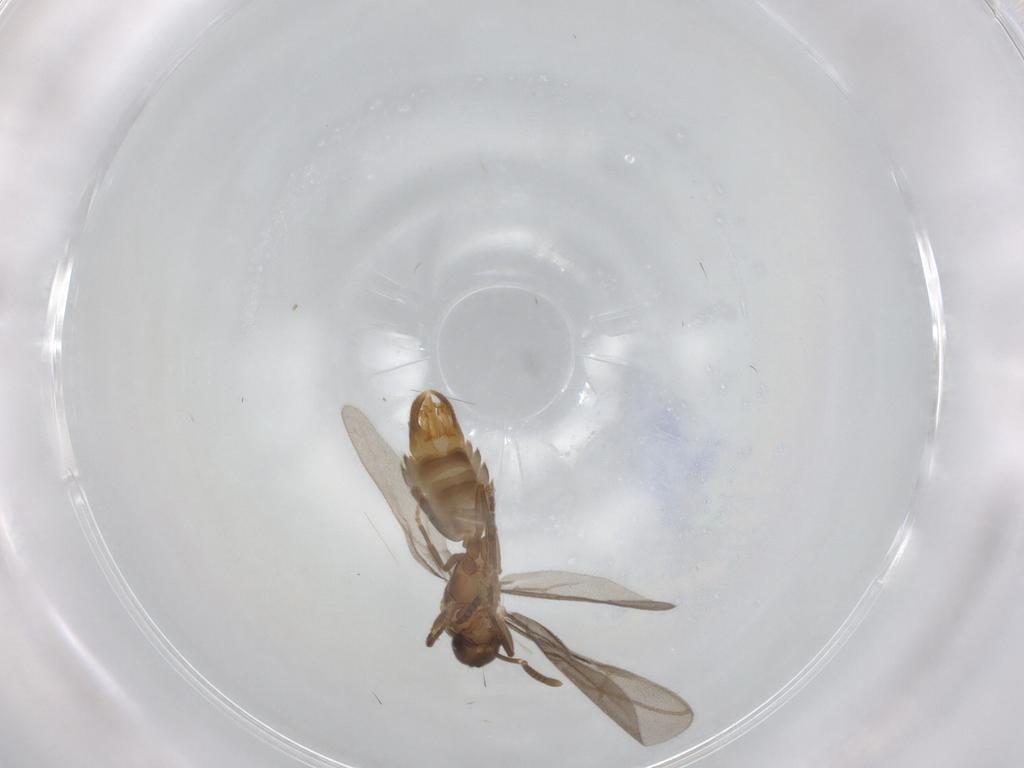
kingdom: Animalia
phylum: Arthropoda
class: Insecta
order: Hymenoptera
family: Formicidae
